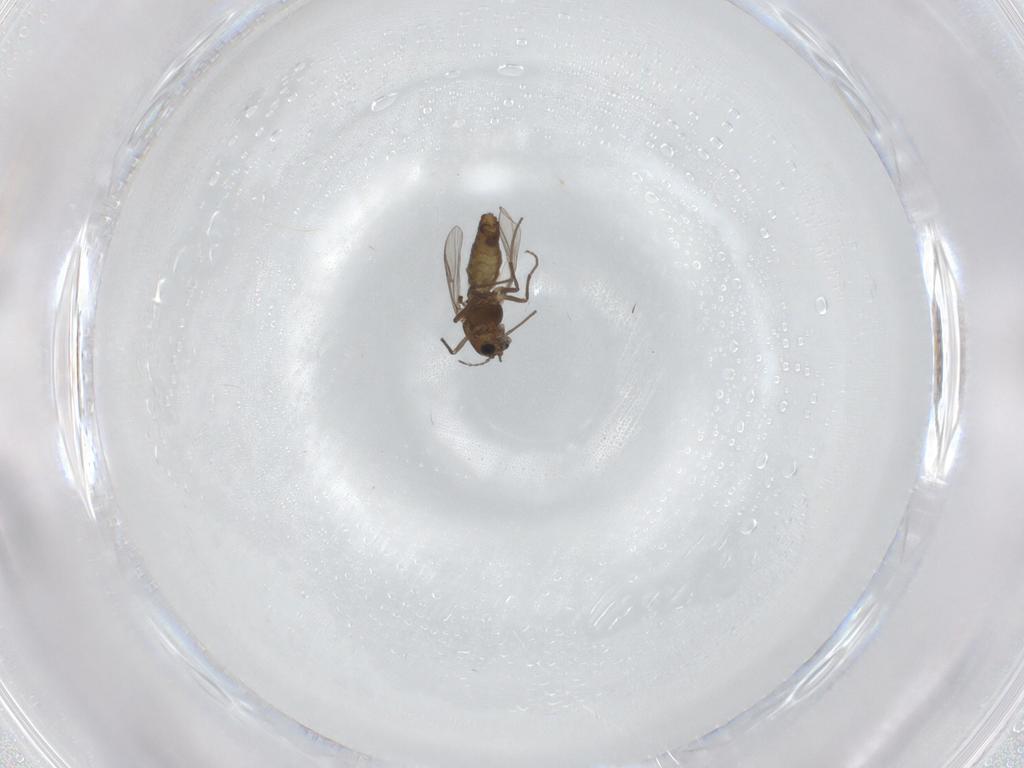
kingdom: Animalia
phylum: Arthropoda
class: Insecta
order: Diptera
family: Chironomidae
